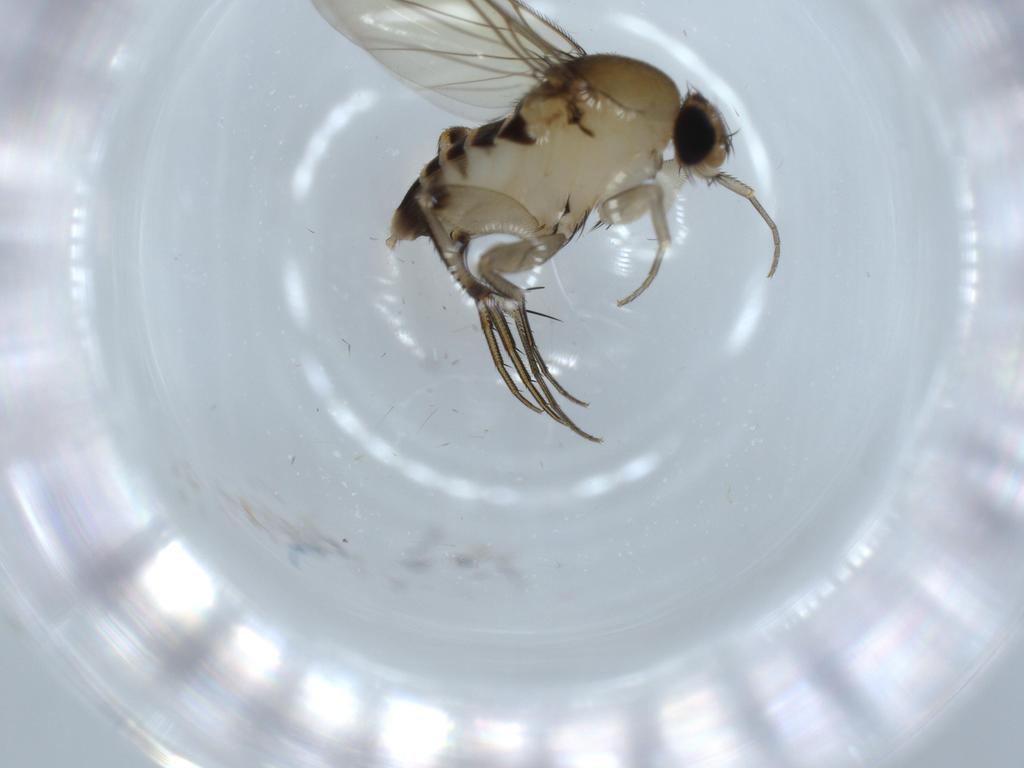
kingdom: Animalia
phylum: Arthropoda
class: Insecta
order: Diptera
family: Phoridae
